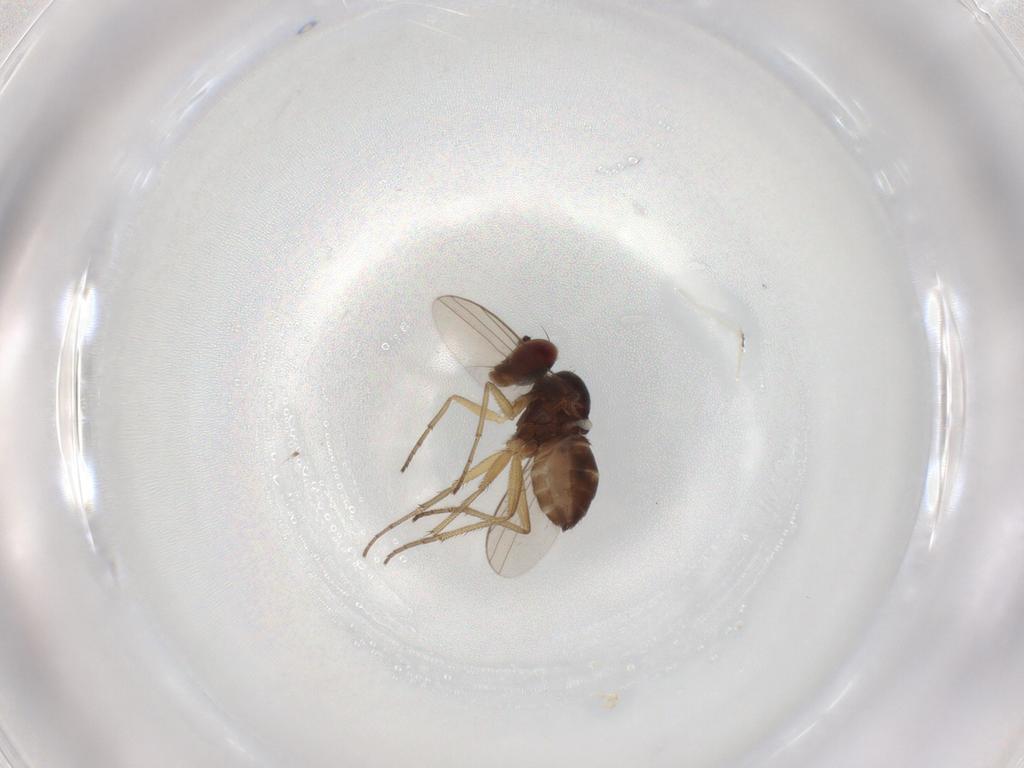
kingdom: Animalia
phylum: Arthropoda
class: Insecta
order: Diptera
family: Dolichopodidae
